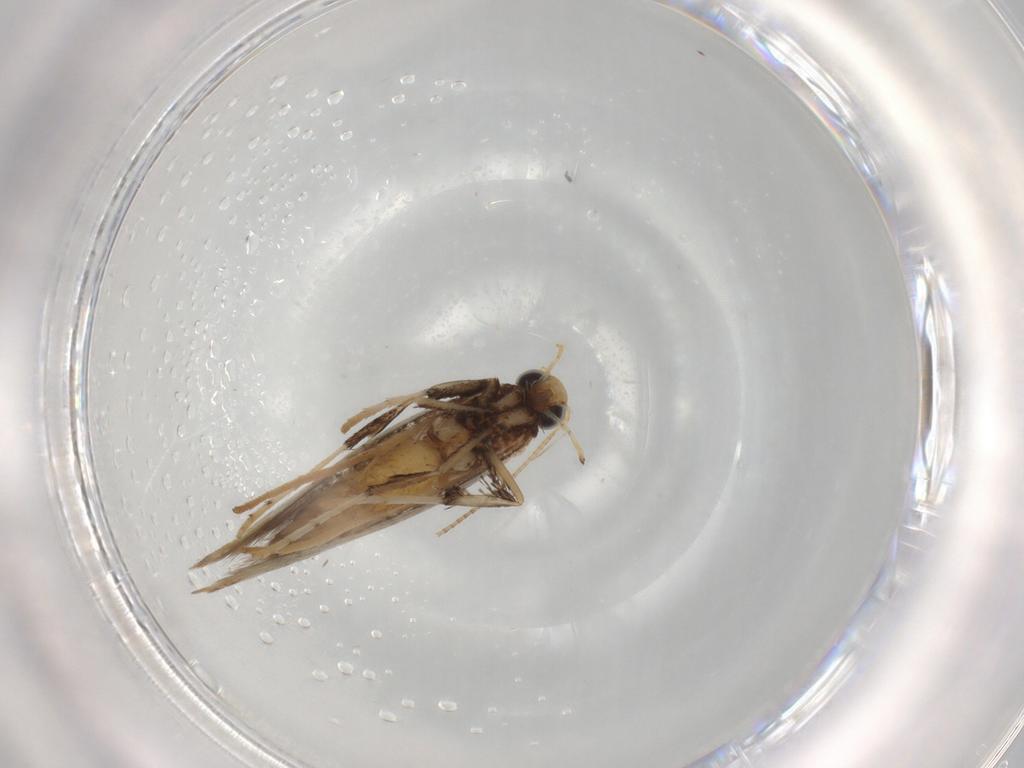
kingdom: Animalia
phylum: Arthropoda
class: Insecta
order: Lepidoptera
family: Gracillariidae
